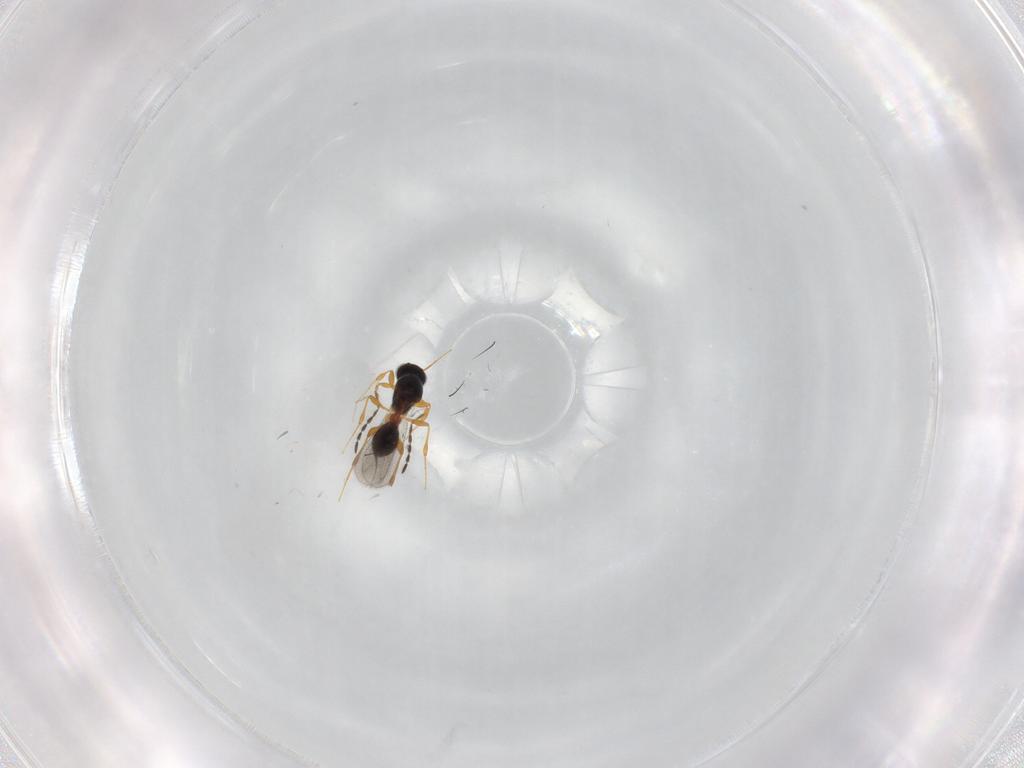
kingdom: Animalia
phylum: Arthropoda
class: Insecta
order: Hymenoptera
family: Platygastridae
